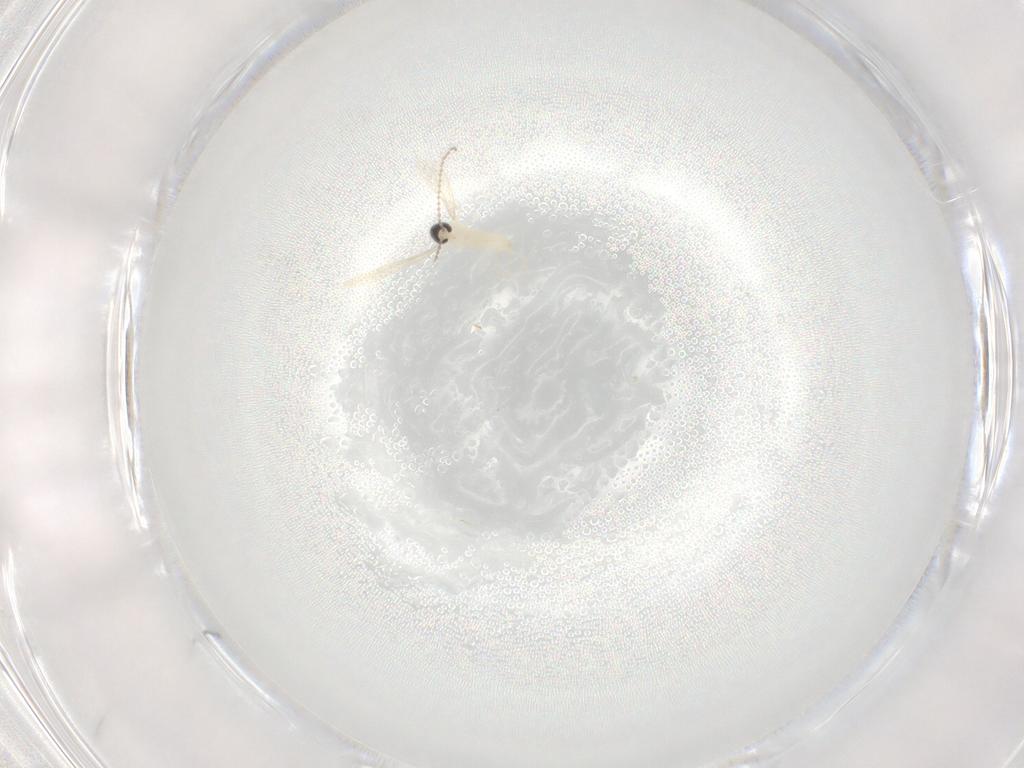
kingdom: Animalia
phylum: Arthropoda
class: Insecta
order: Diptera
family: Cecidomyiidae
